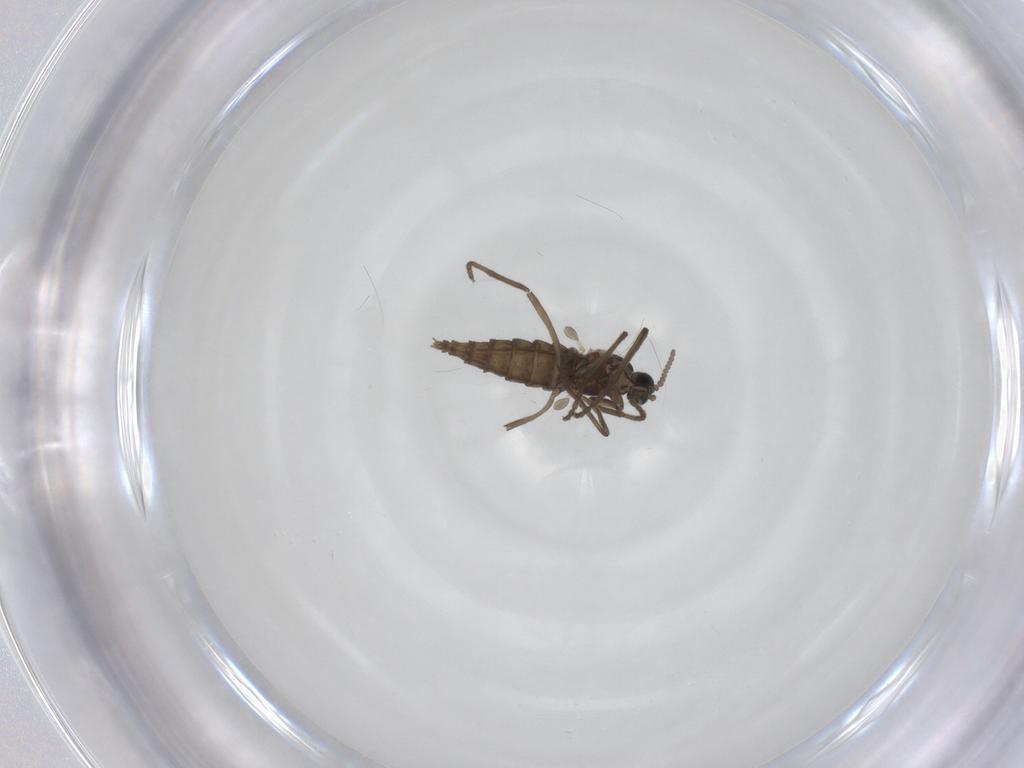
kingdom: Animalia
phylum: Arthropoda
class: Insecta
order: Diptera
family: Cecidomyiidae
